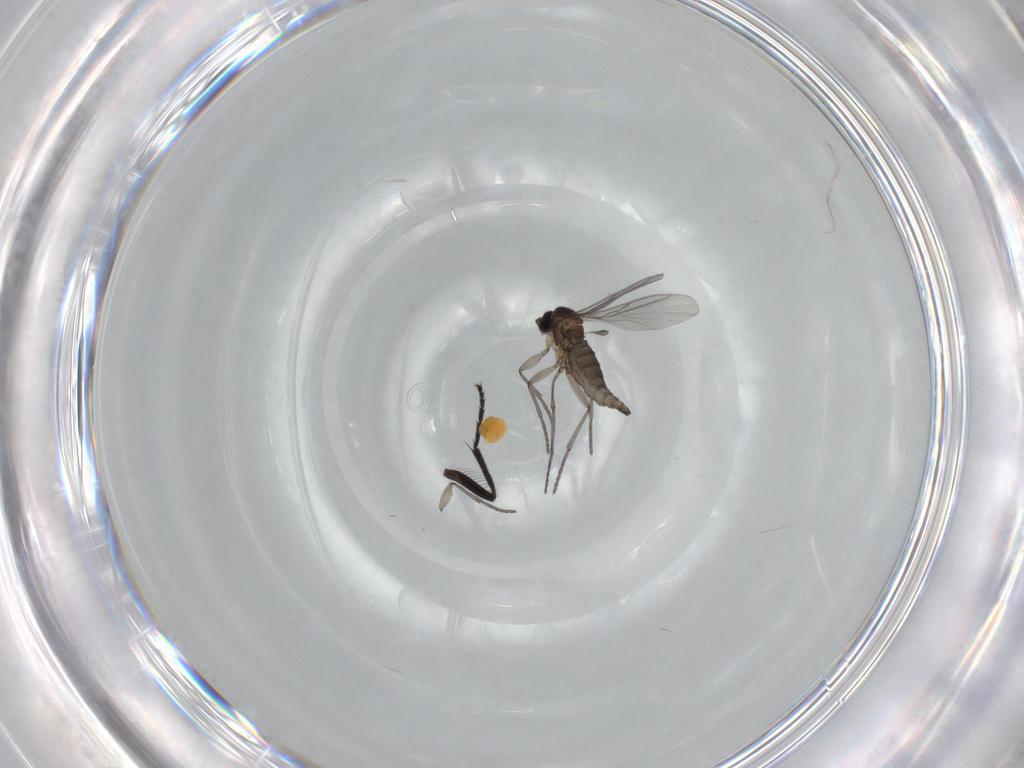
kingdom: Animalia
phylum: Arthropoda
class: Insecta
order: Diptera
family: Milichiidae
